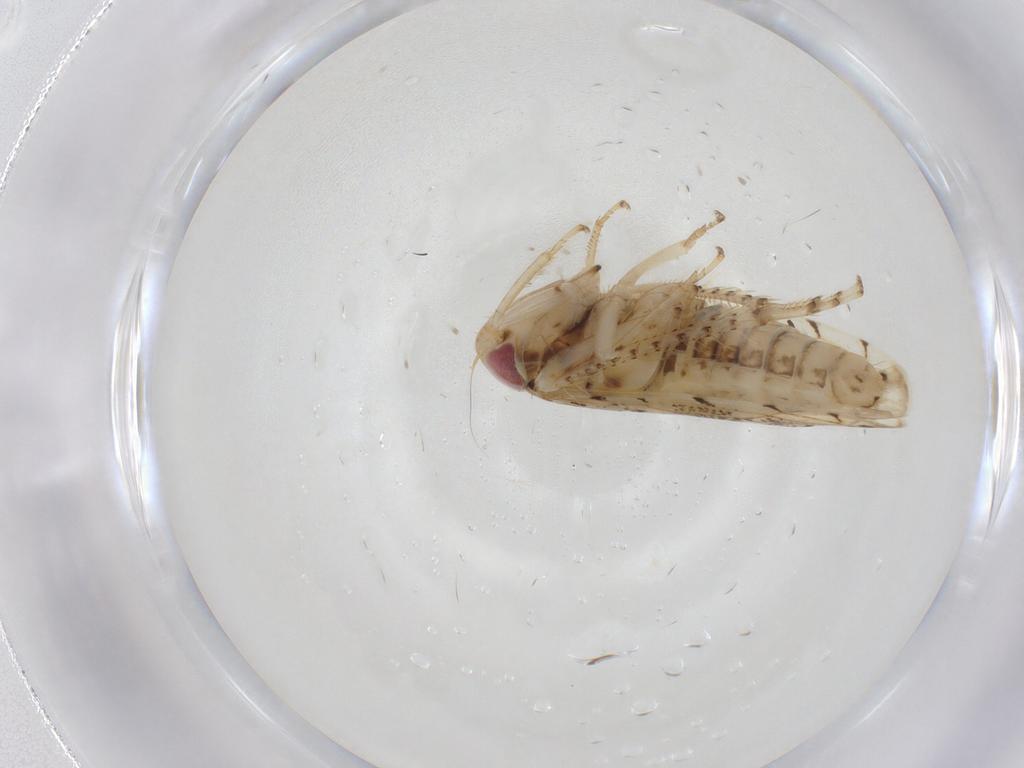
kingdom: Animalia
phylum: Arthropoda
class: Insecta
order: Hemiptera
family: Cicadellidae
